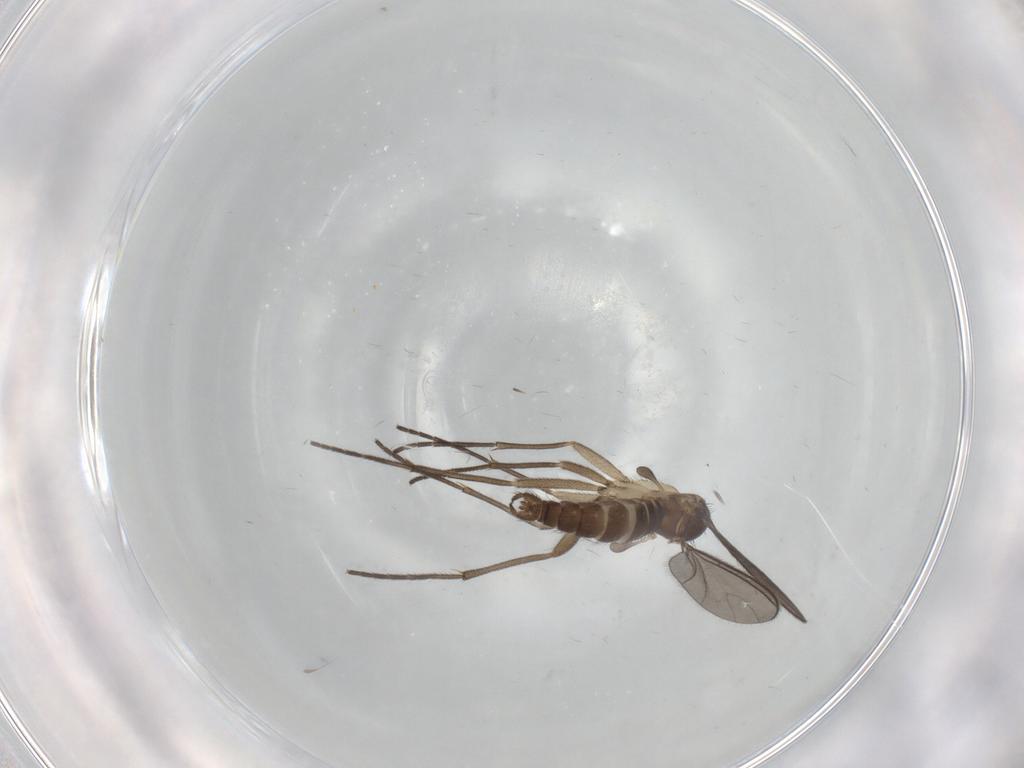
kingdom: Animalia
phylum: Arthropoda
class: Insecta
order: Diptera
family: Sciaridae
